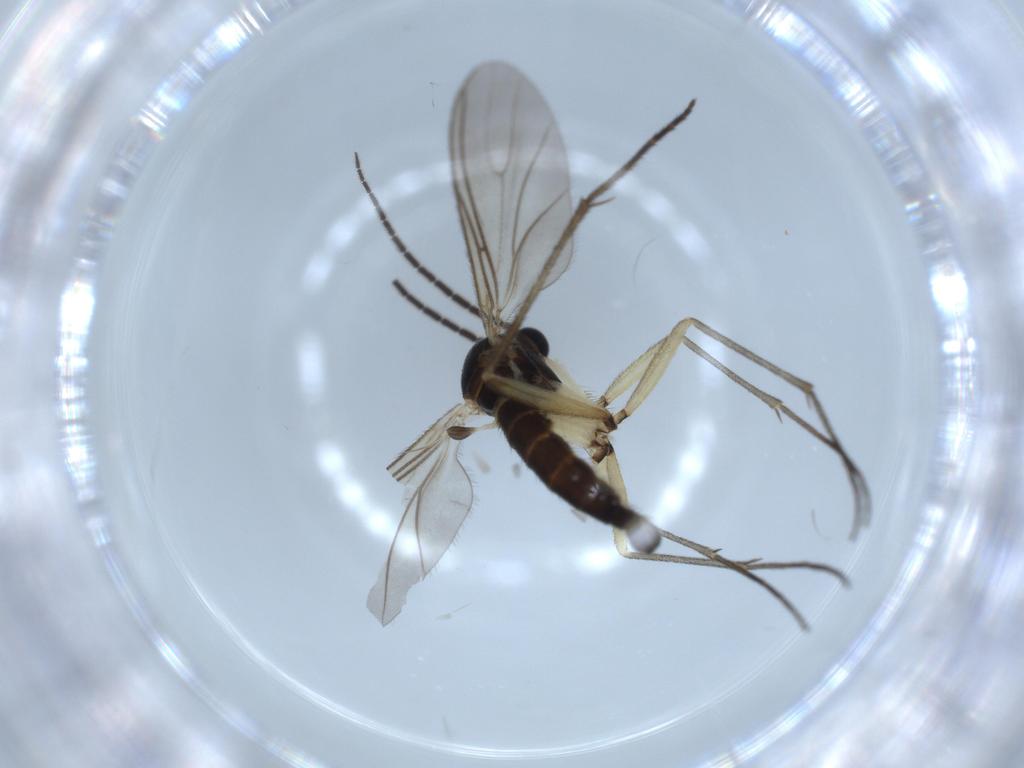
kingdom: Animalia
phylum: Arthropoda
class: Insecta
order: Diptera
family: Sciaridae
